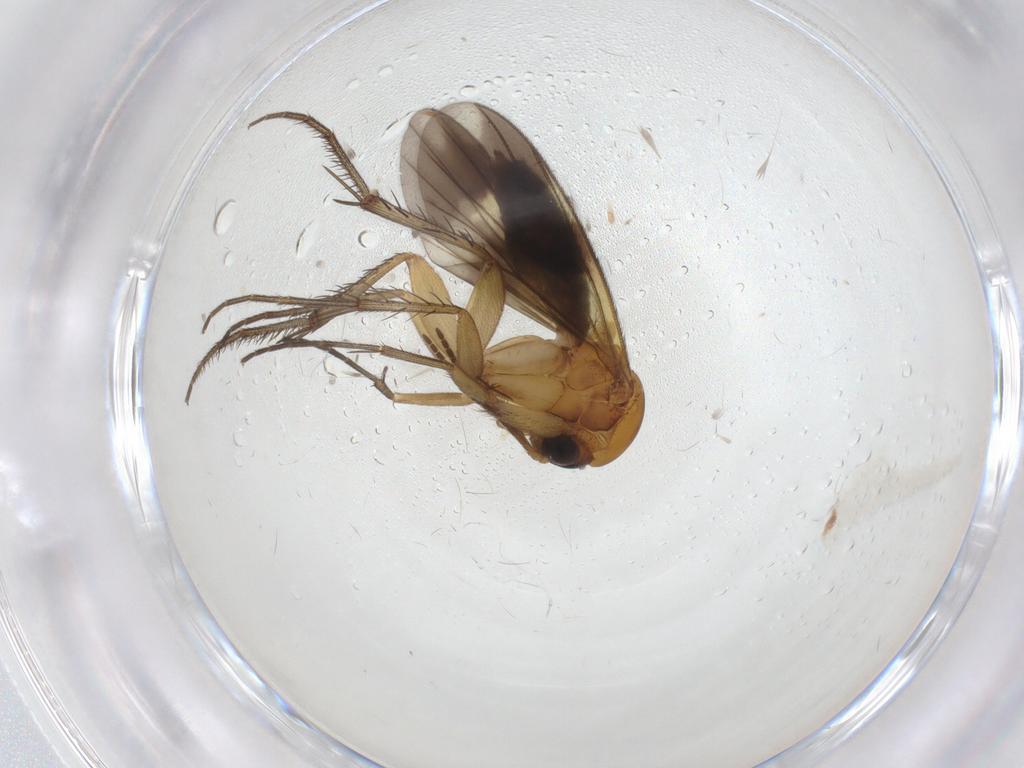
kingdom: Animalia
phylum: Arthropoda
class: Insecta
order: Diptera
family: Mycetophilidae
